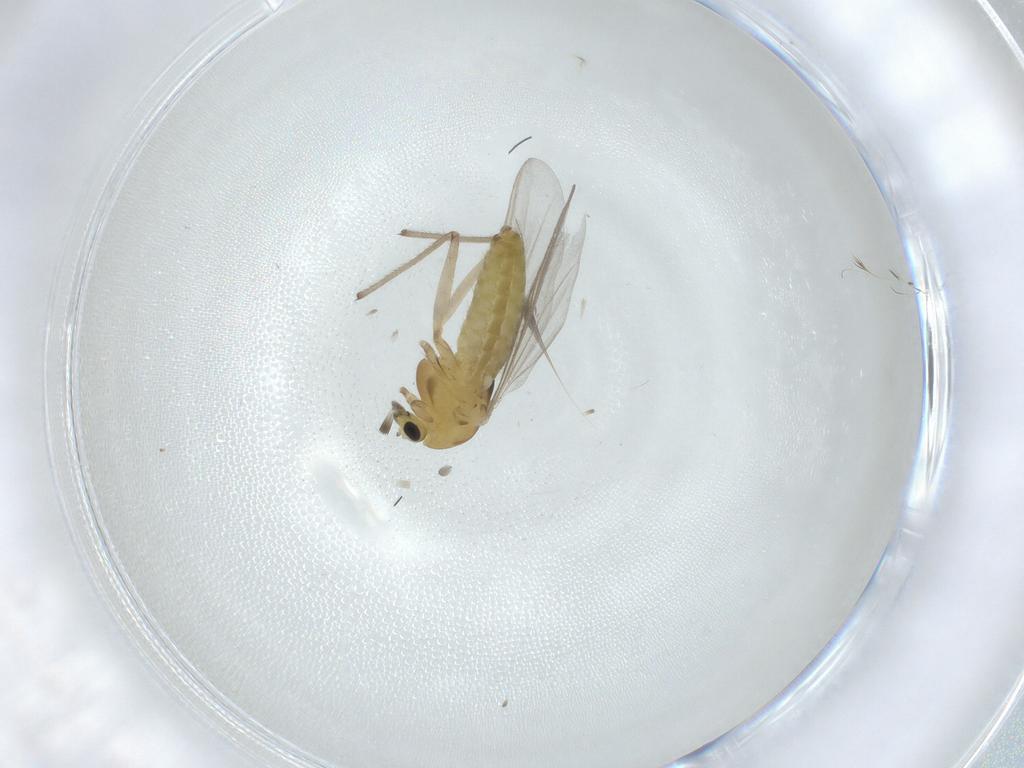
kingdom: Animalia
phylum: Arthropoda
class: Insecta
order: Diptera
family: Chironomidae
